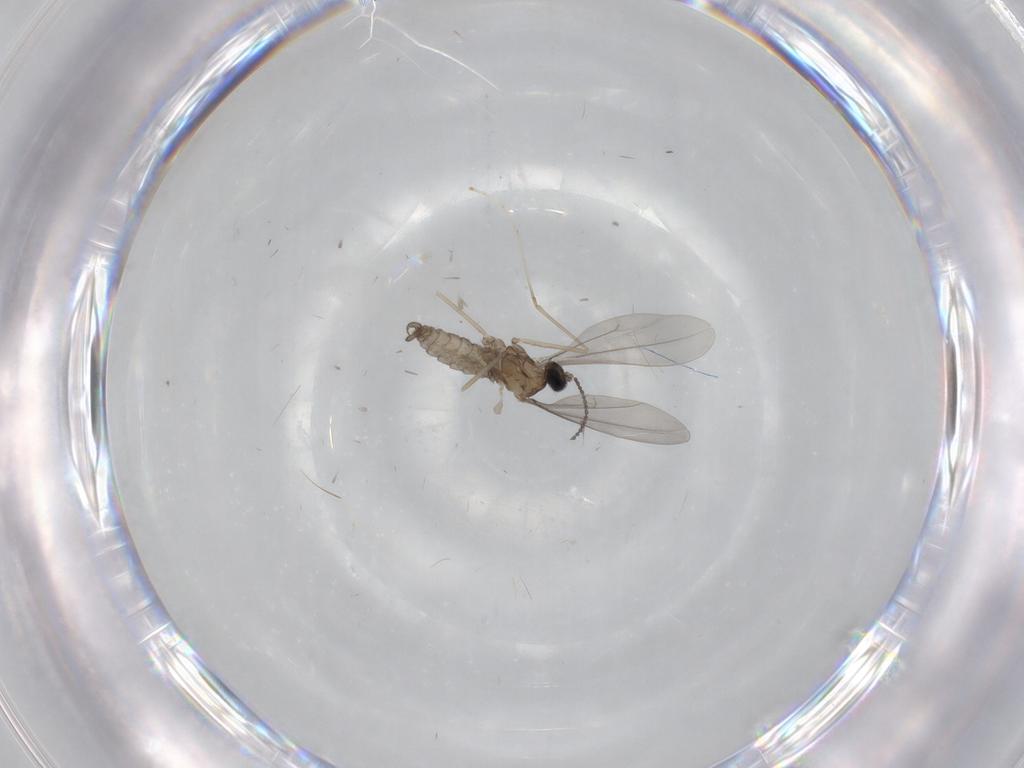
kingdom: Animalia
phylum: Arthropoda
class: Insecta
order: Diptera
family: Cecidomyiidae
